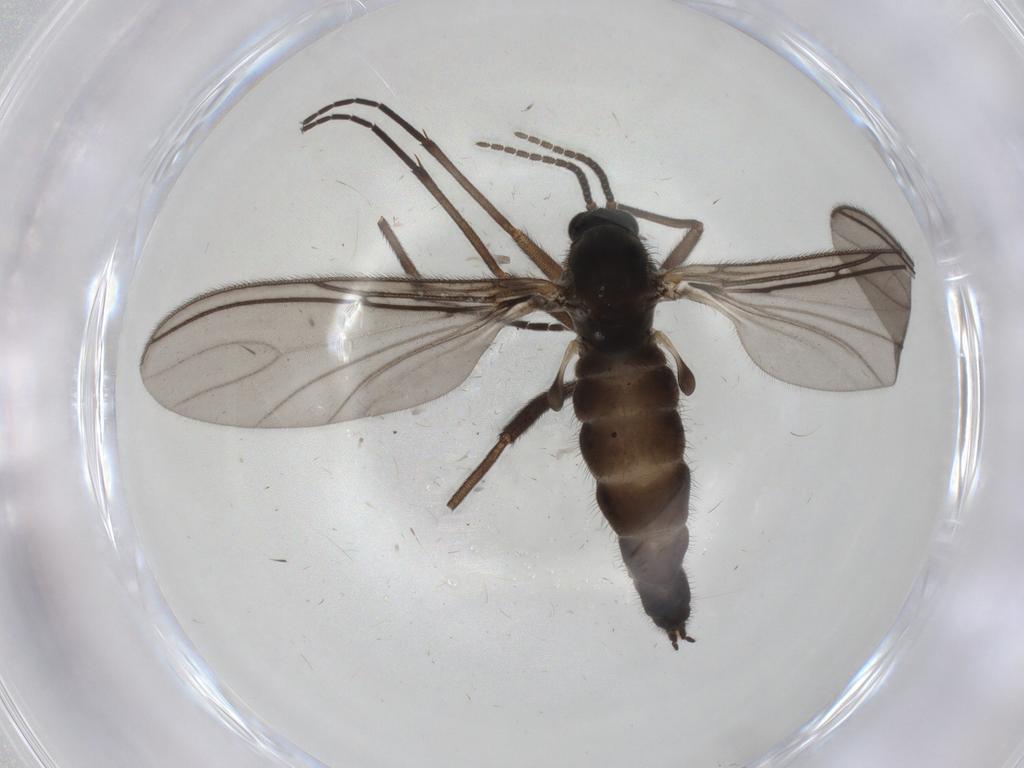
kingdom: Animalia
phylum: Arthropoda
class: Insecta
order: Diptera
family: Sciaridae
